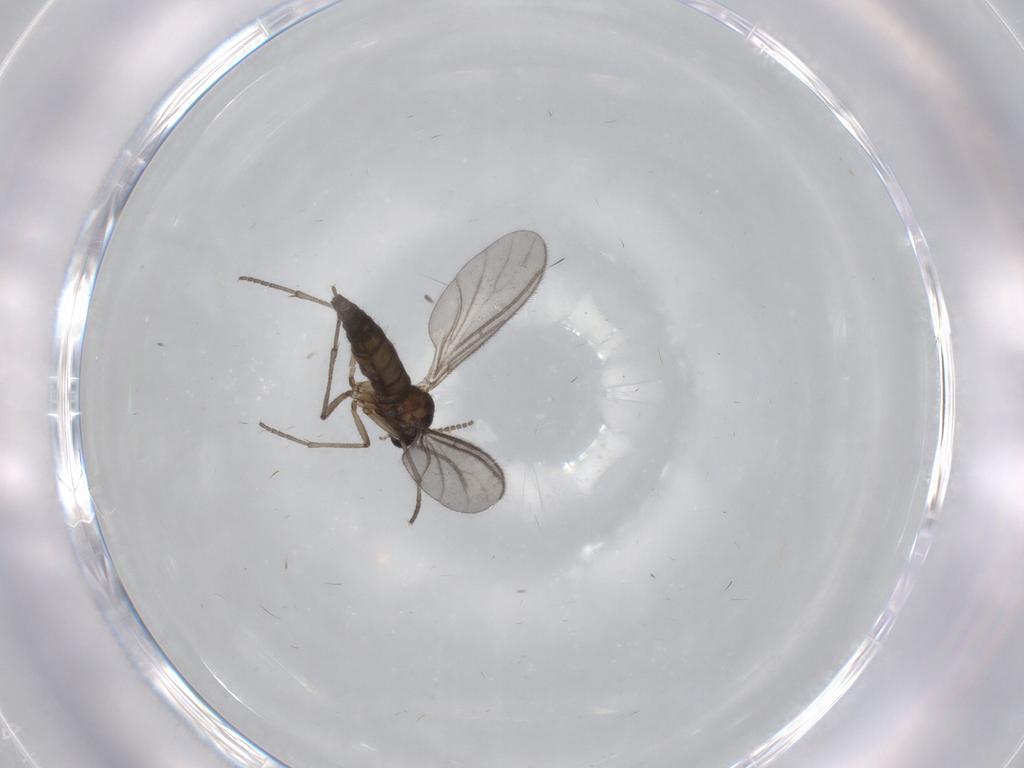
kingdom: Animalia
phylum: Arthropoda
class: Insecta
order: Diptera
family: Sciaridae
